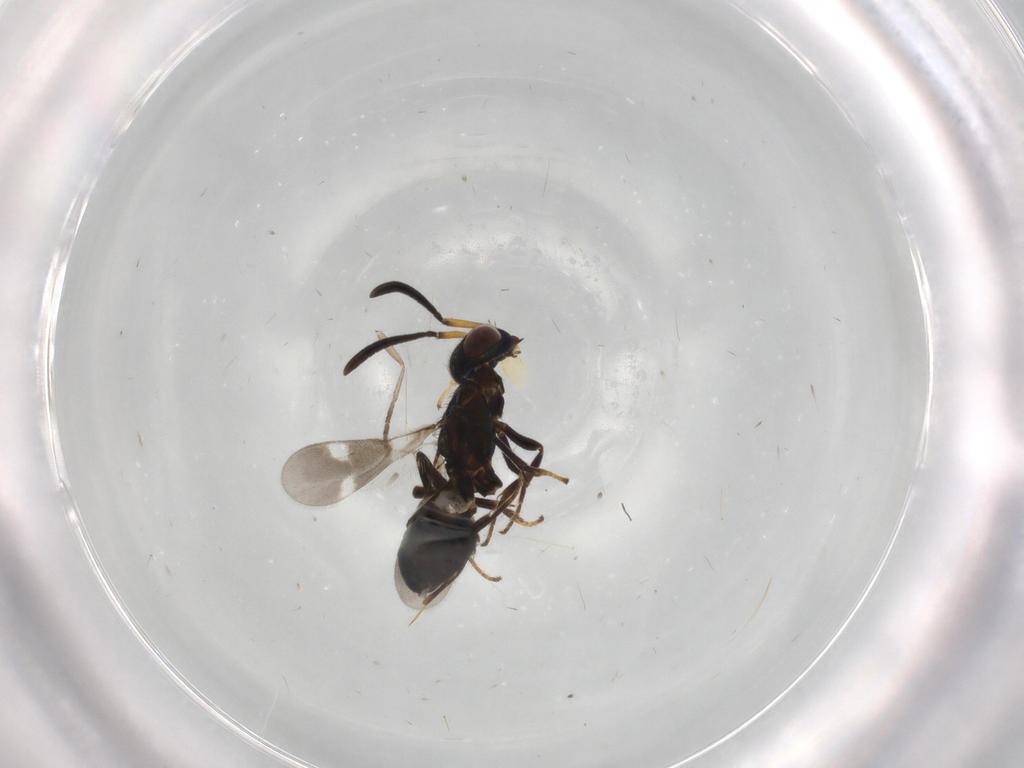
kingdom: Animalia
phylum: Arthropoda
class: Insecta
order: Hymenoptera
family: Eupelmidae
